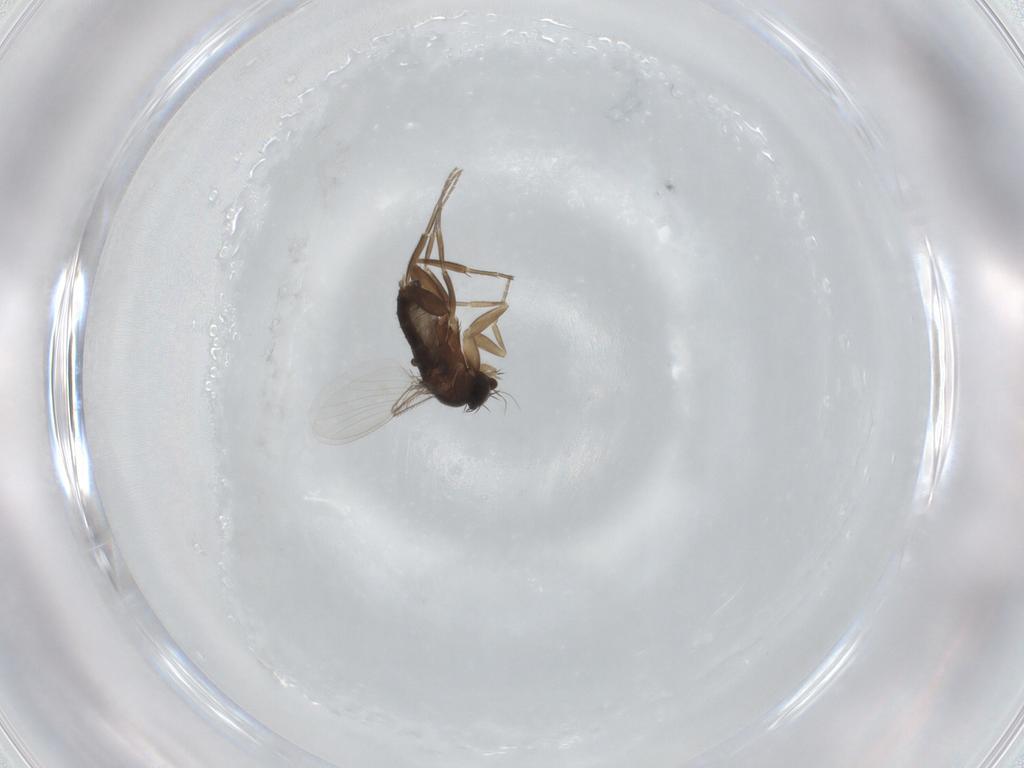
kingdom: Animalia
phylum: Arthropoda
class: Insecta
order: Diptera
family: Phoridae
